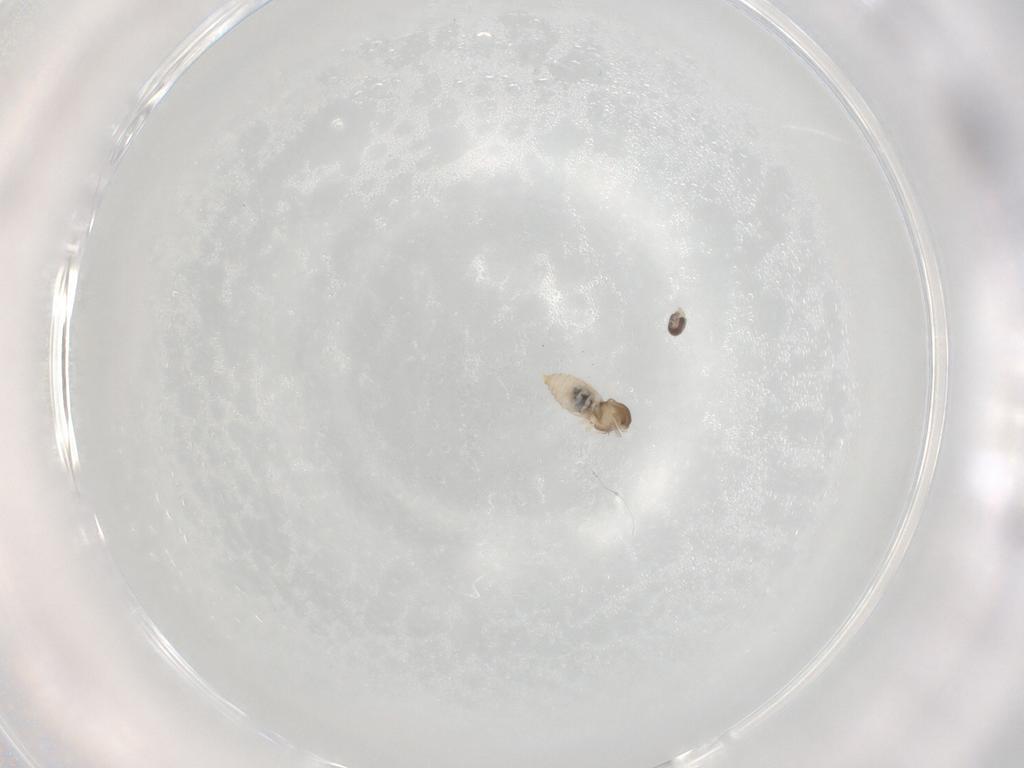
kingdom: Animalia
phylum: Arthropoda
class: Insecta
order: Diptera
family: Cecidomyiidae
